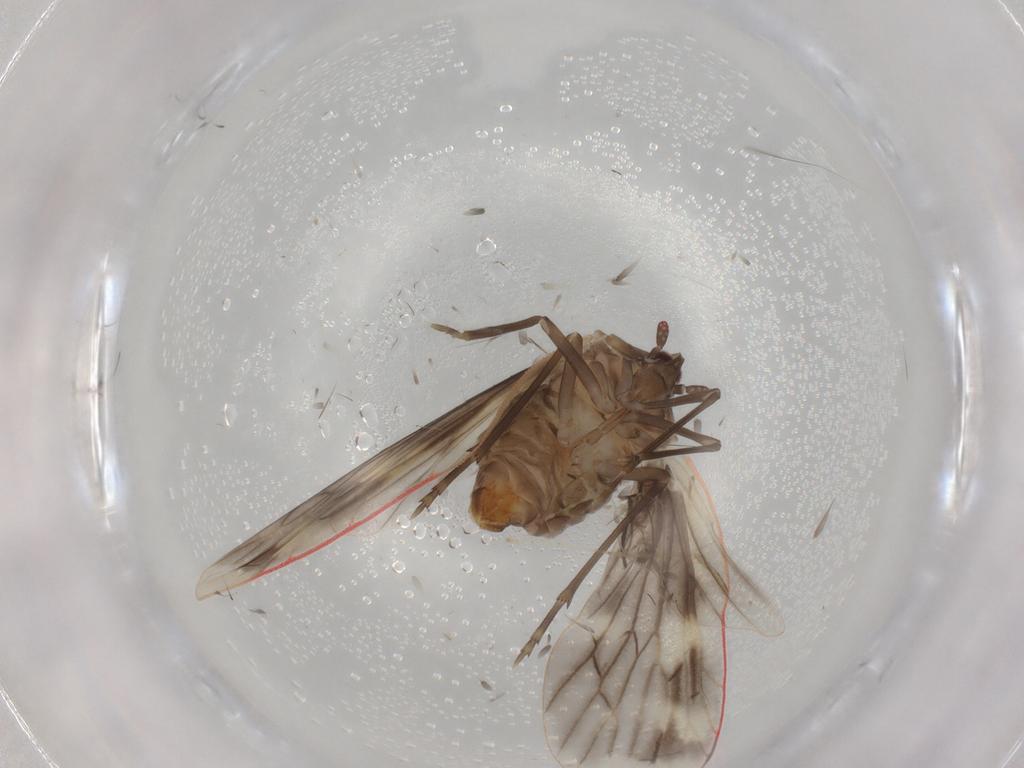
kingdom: Animalia
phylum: Arthropoda
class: Insecta
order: Hemiptera
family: Derbidae
